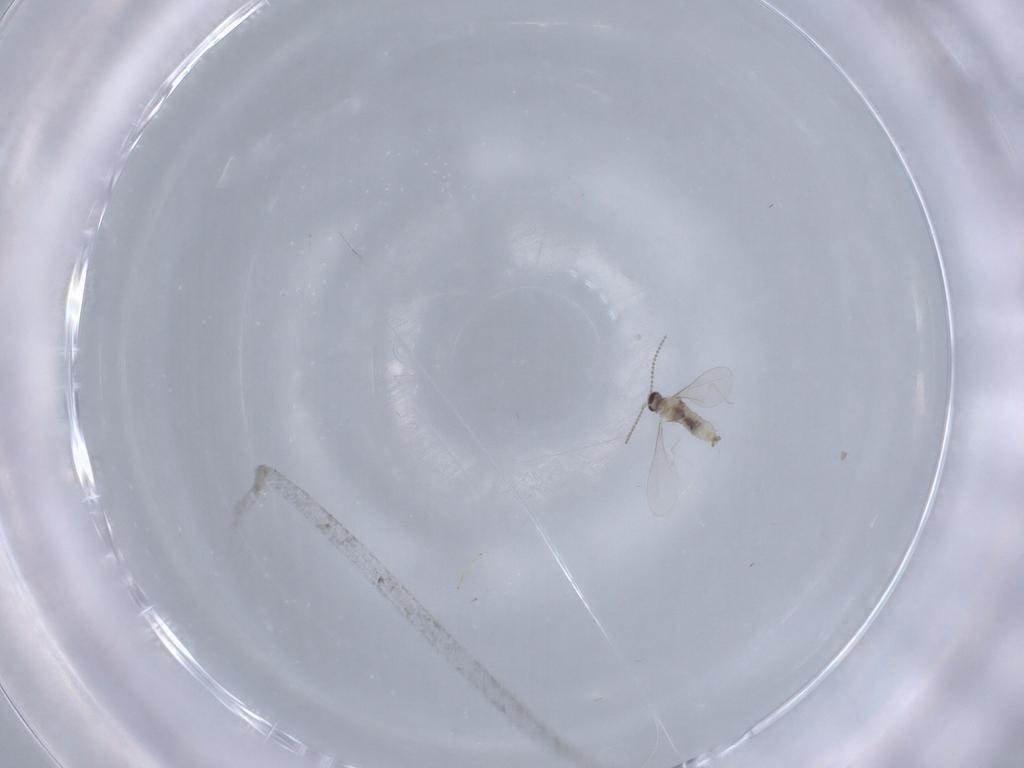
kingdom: Animalia
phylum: Arthropoda
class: Insecta
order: Diptera
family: Cecidomyiidae
